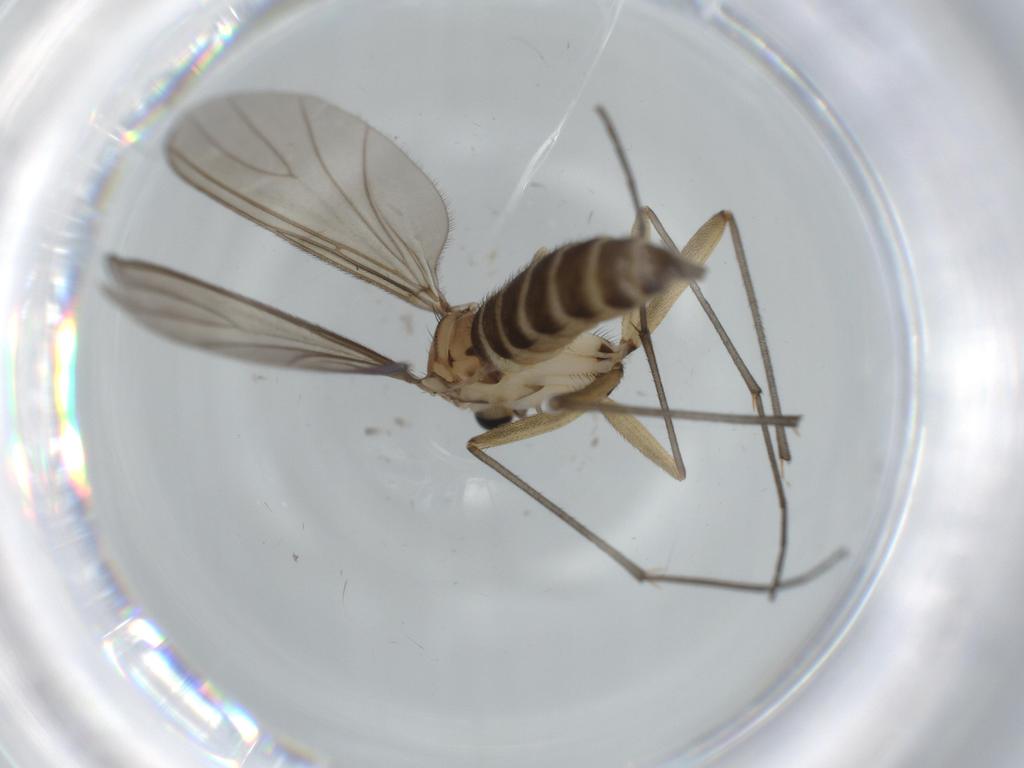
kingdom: Animalia
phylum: Arthropoda
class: Insecta
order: Diptera
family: Sciaridae
